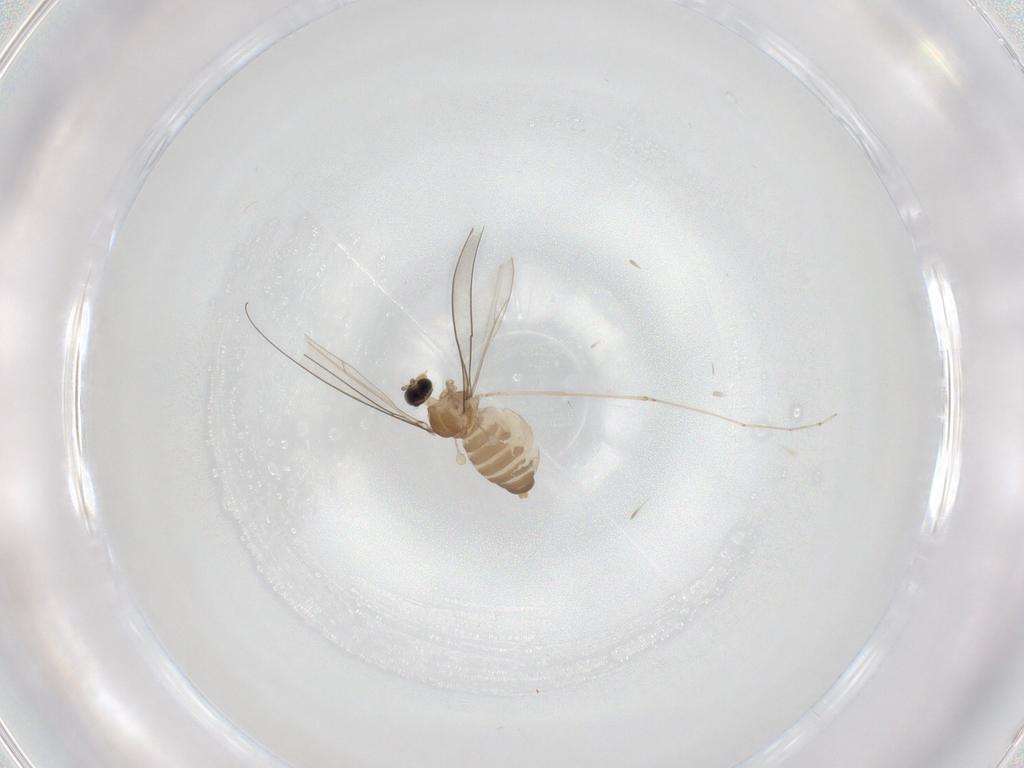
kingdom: Animalia
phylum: Arthropoda
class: Insecta
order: Diptera
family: Cecidomyiidae
